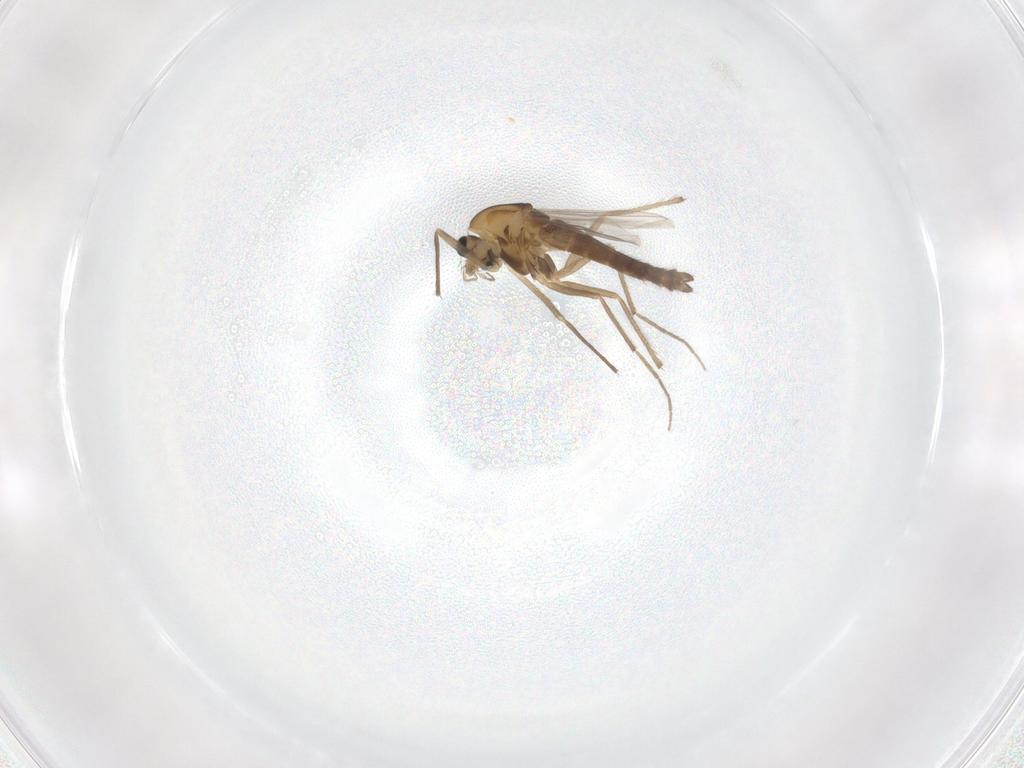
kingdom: Animalia
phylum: Arthropoda
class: Insecta
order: Diptera
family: Chironomidae
